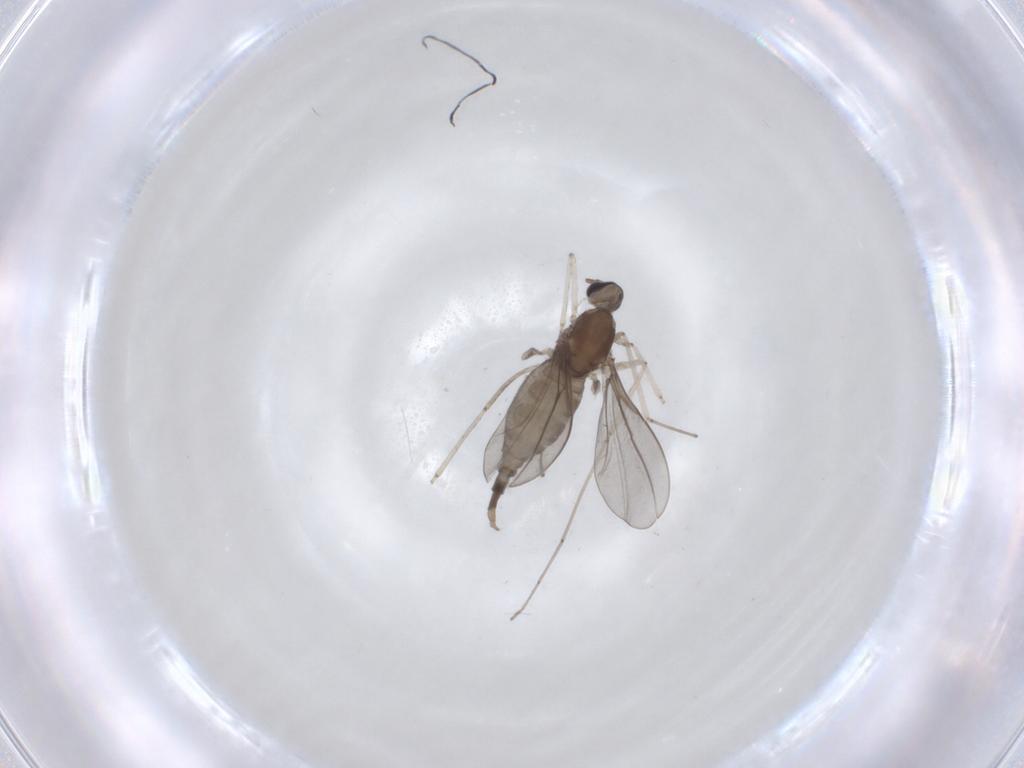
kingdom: Animalia
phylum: Arthropoda
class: Insecta
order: Diptera
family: Cecidomyiidae
